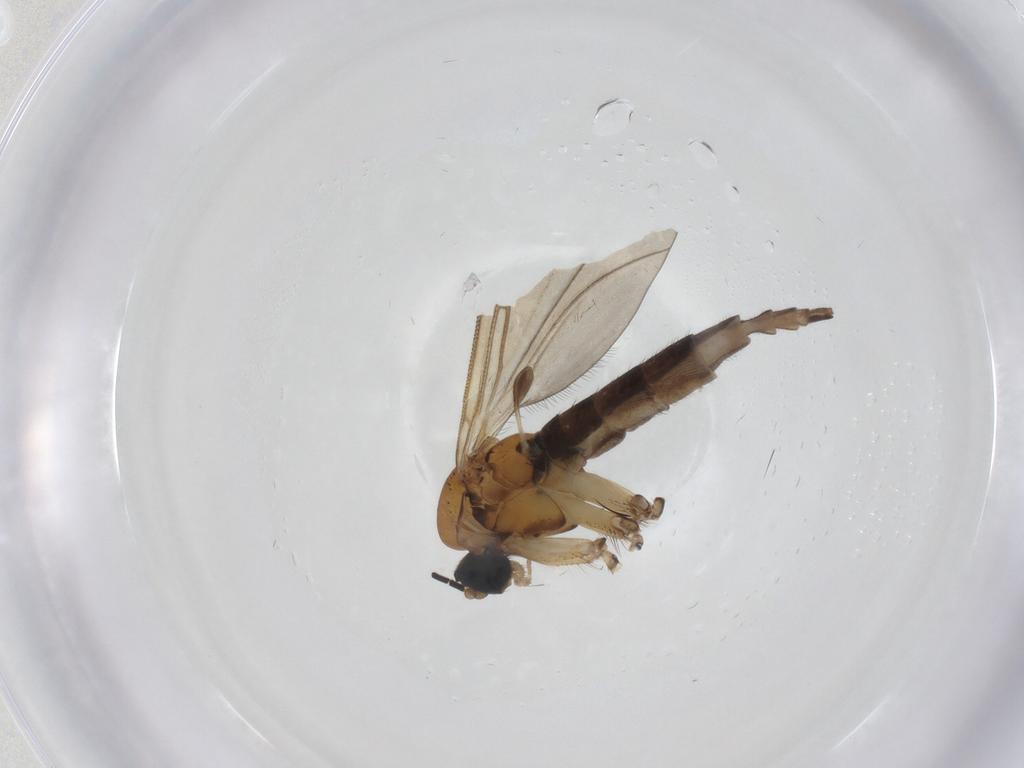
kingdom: Animalia
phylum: Arthropoda
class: Insecta
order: Diptera
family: Sciaridae
